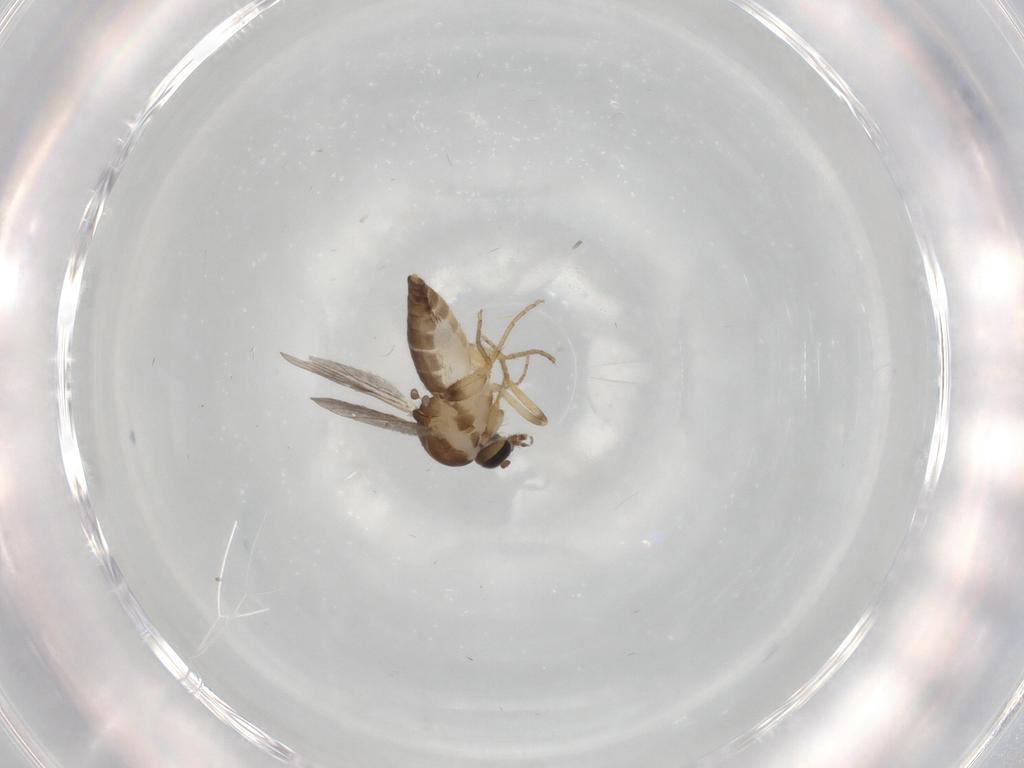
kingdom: Animalia
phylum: Arthropoda
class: Insecta
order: Diptera
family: Ceratopogonidae
